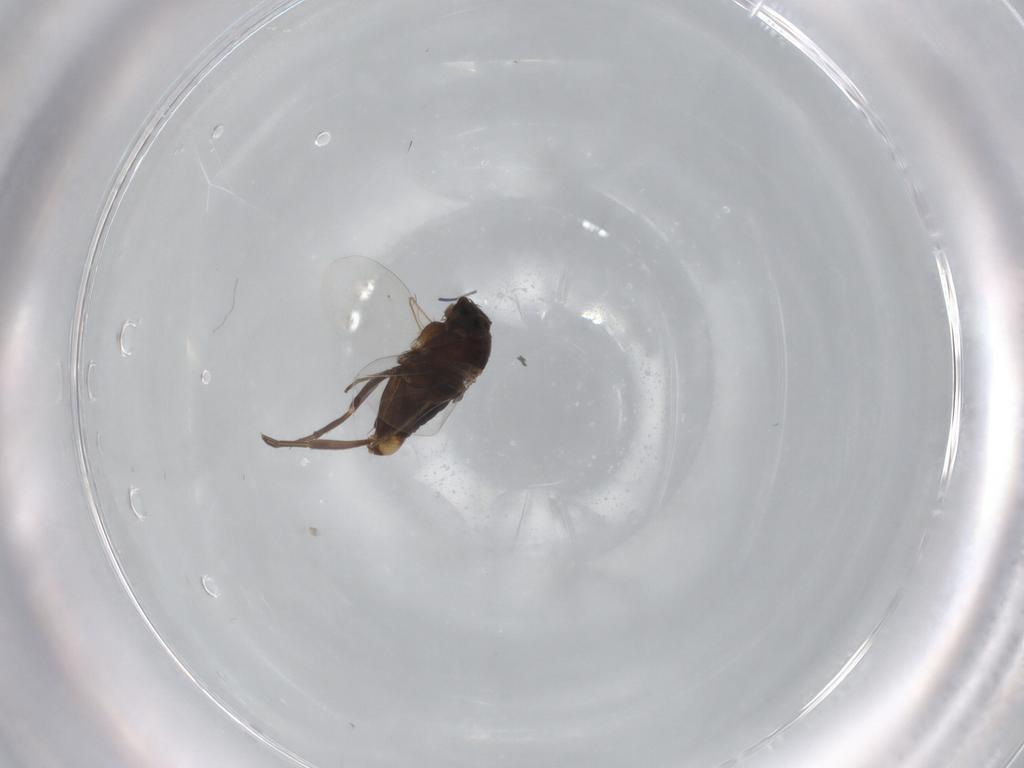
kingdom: Animalia
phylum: Arthropoda
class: Insecta
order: Diptera
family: Phoridae
